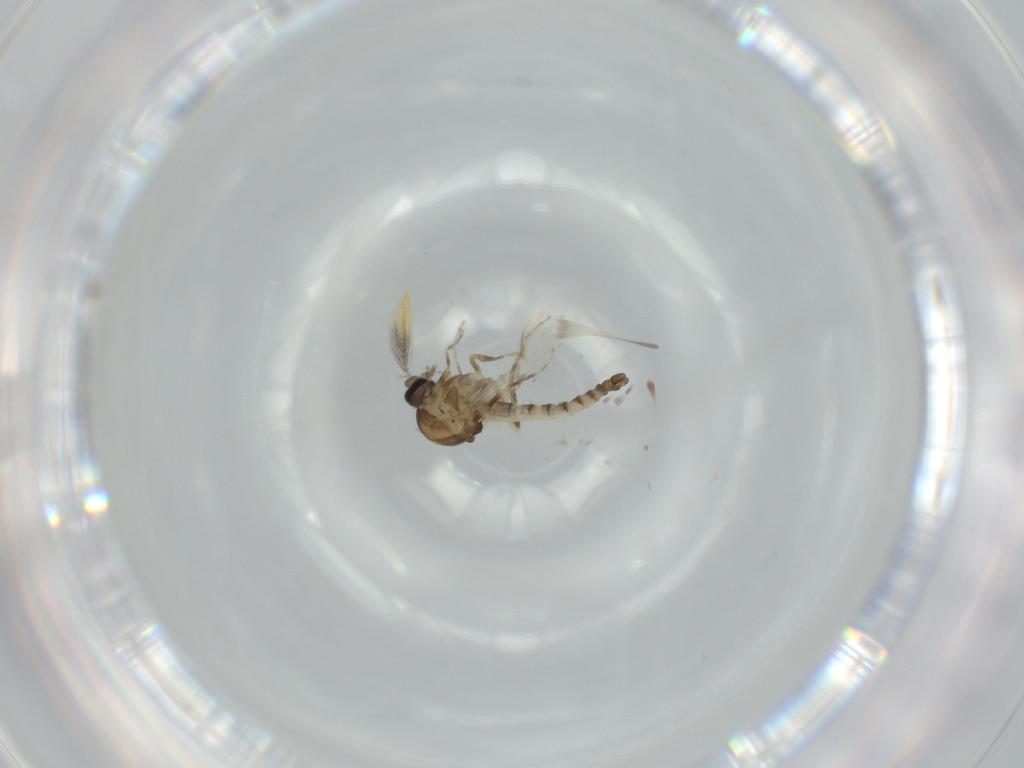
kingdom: Animalia
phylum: Arthropoda
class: Insecta
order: Diptera
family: Ceratopogonidae
